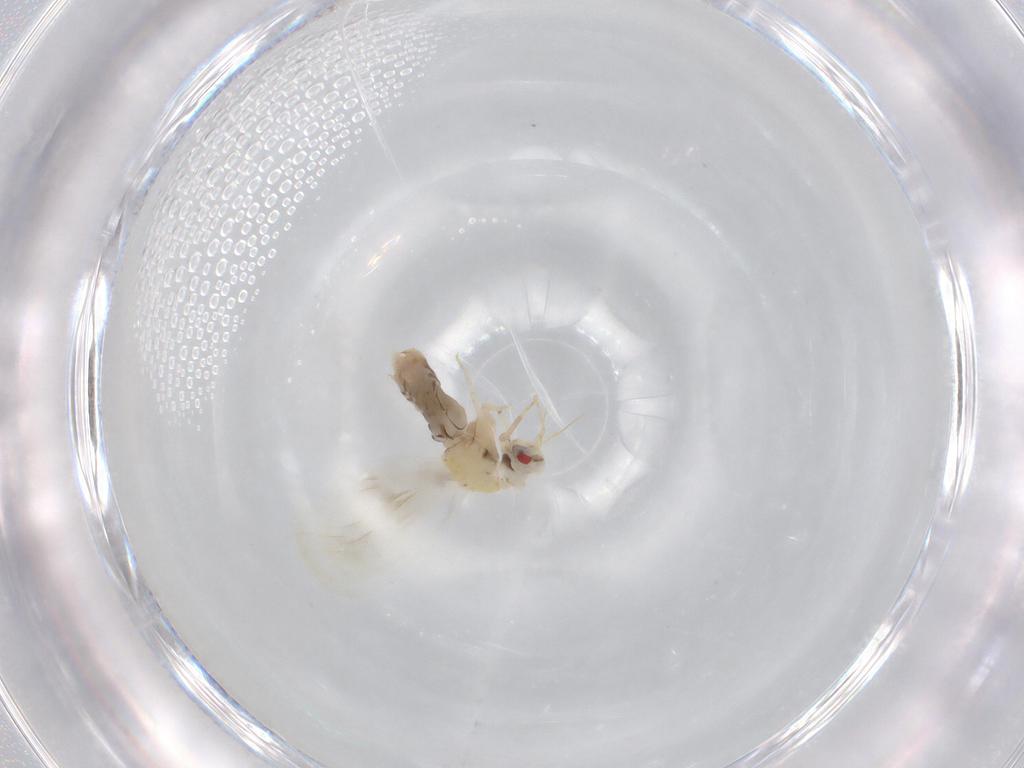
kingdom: Animalia
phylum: Arthropoda
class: Insecta
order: Hemiptera
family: Aleyrodidae
